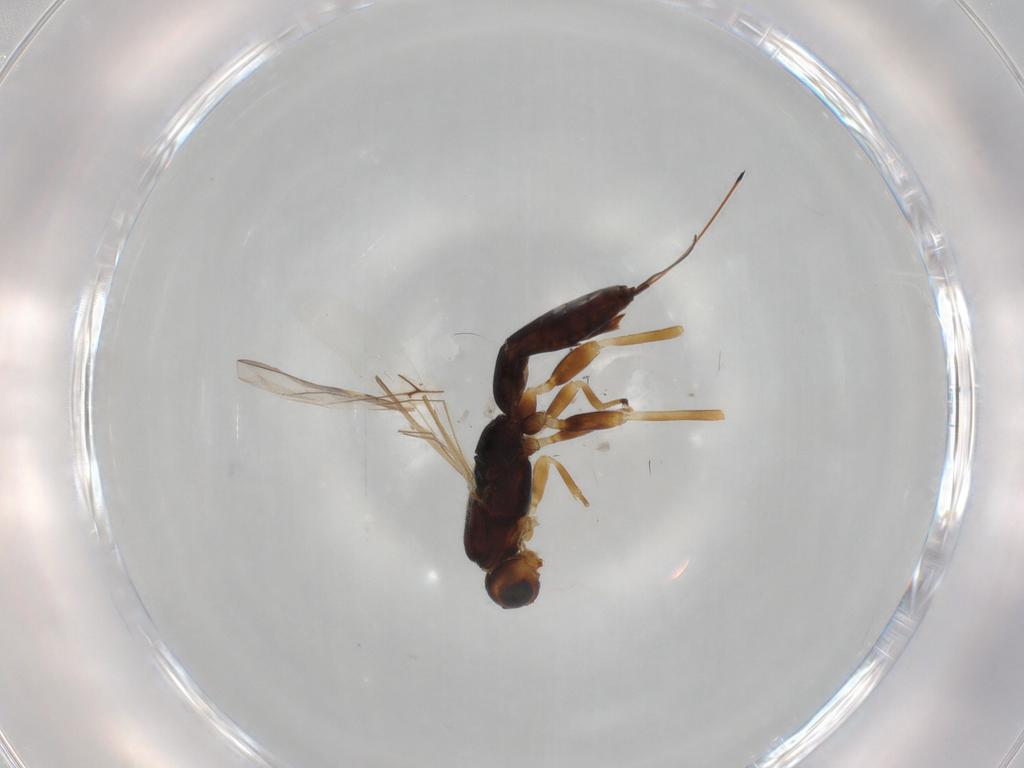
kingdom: Animalia
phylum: Arthropoda
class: Insecta
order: Hymenoptera
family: Braconidae
